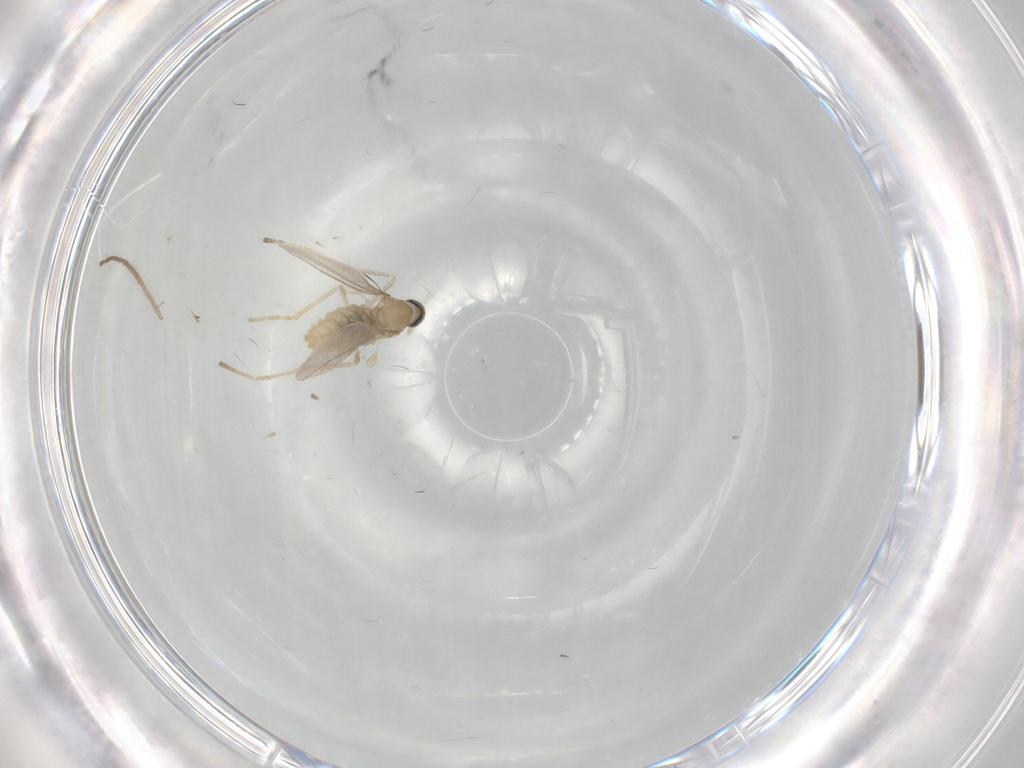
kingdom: Animalia
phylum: Arthropoda
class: Insecta
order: Diptera
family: Cecidomyiidae
